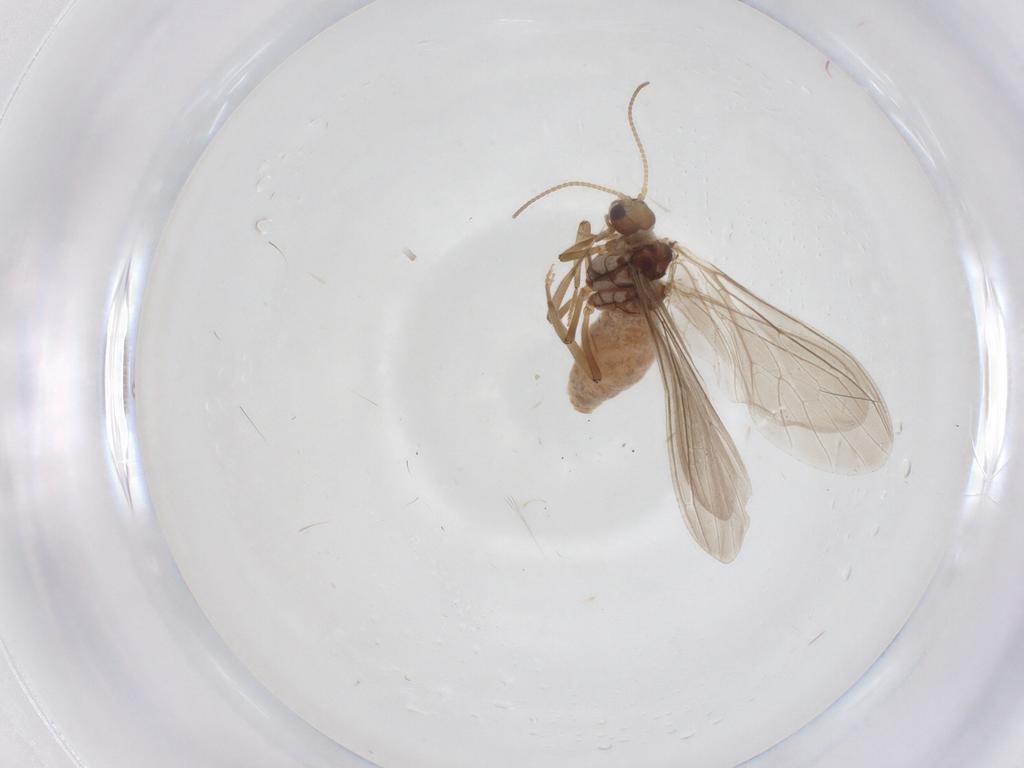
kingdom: Animalia
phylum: Arthropoda
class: Insecta
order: Neuroptera
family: Coniopterygidae
